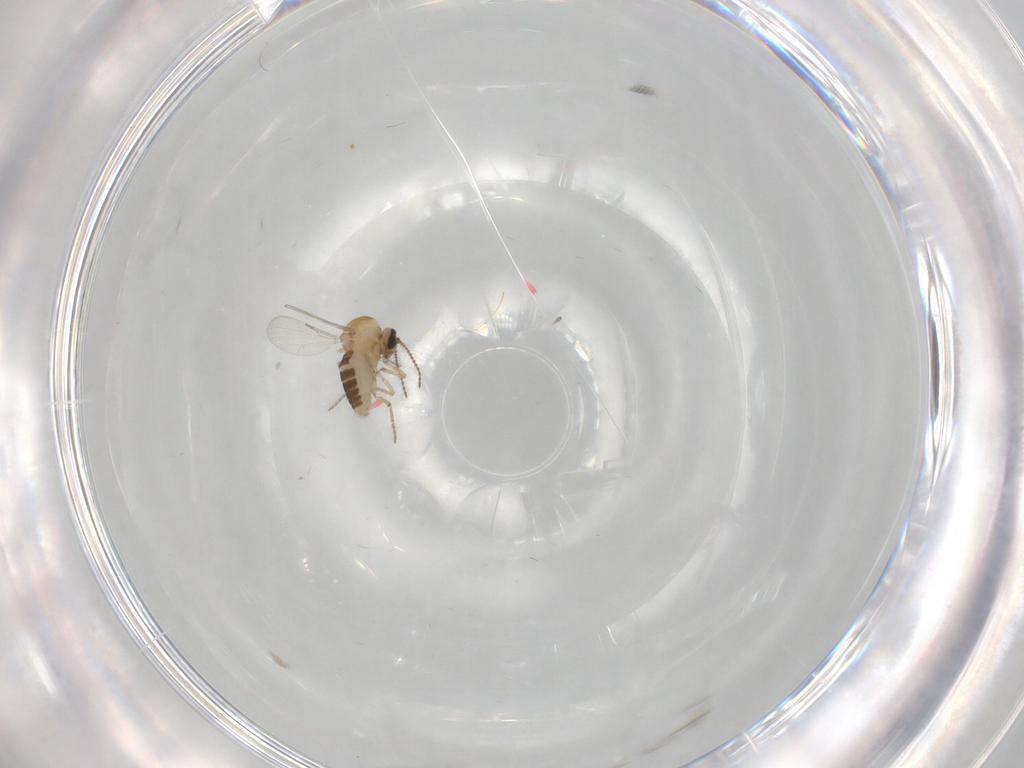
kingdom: Animalia
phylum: Arthropoda
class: Insecta
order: Diptera
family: Ceratopogonidae
